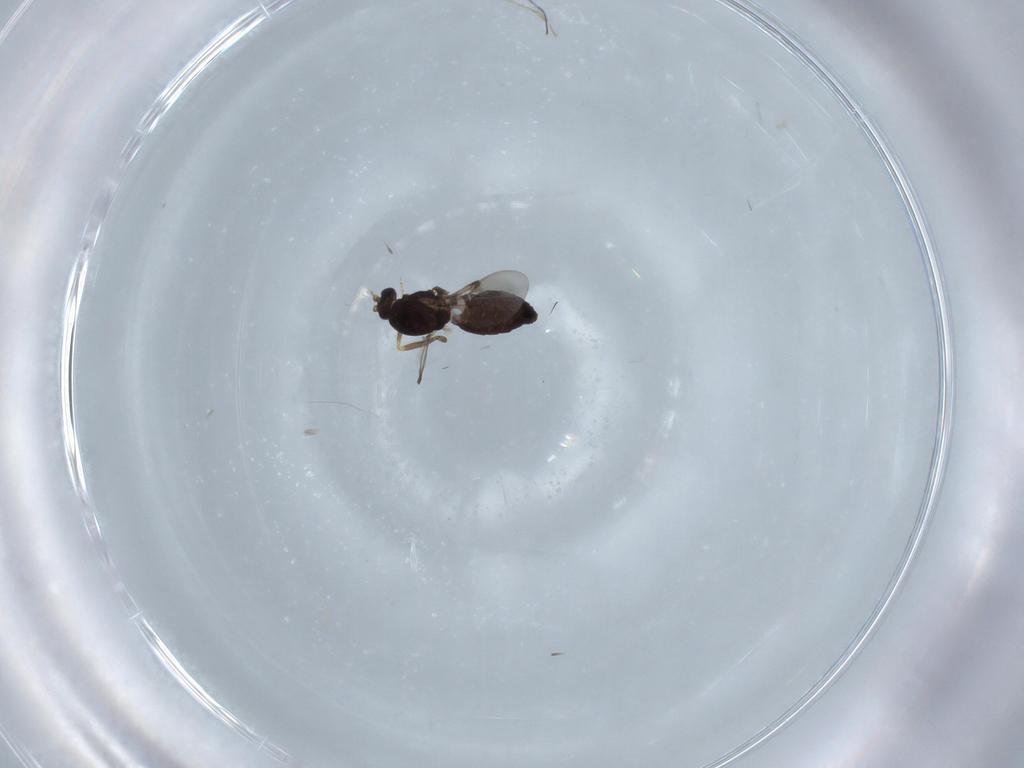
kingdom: Animalia
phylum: Arthropoda
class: Insecta
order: Diptera
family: Ceratopogonidae
